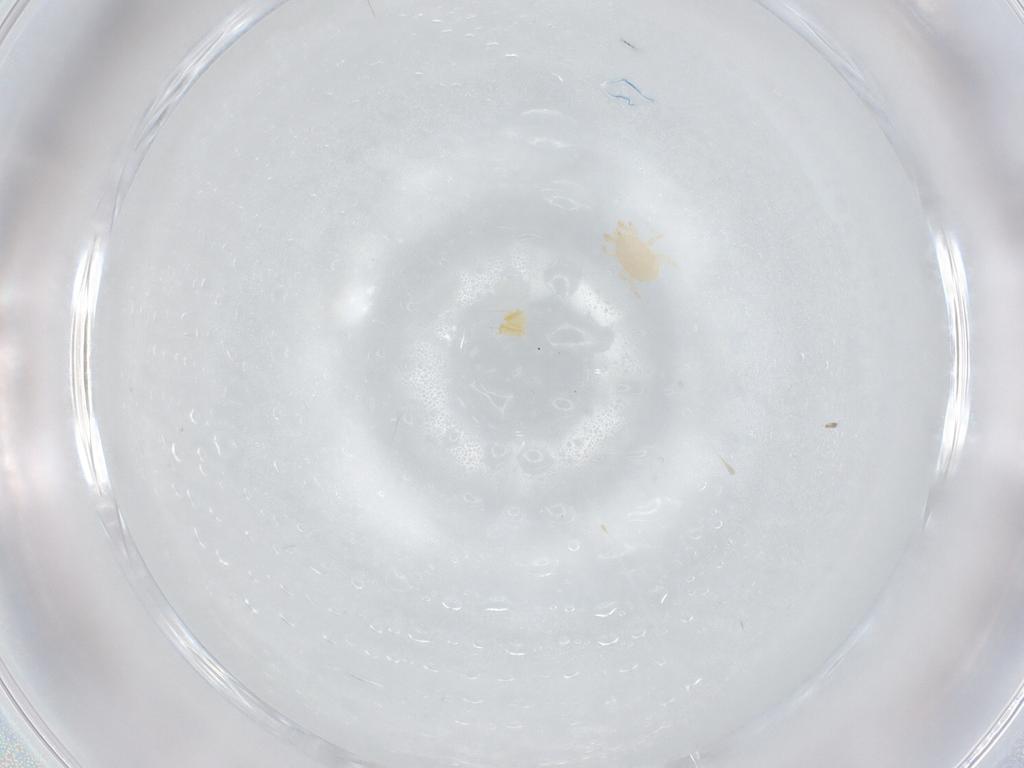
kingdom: Animalia
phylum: Arthropoda
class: Arachnida
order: Mesostigmata
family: Melicharidae
